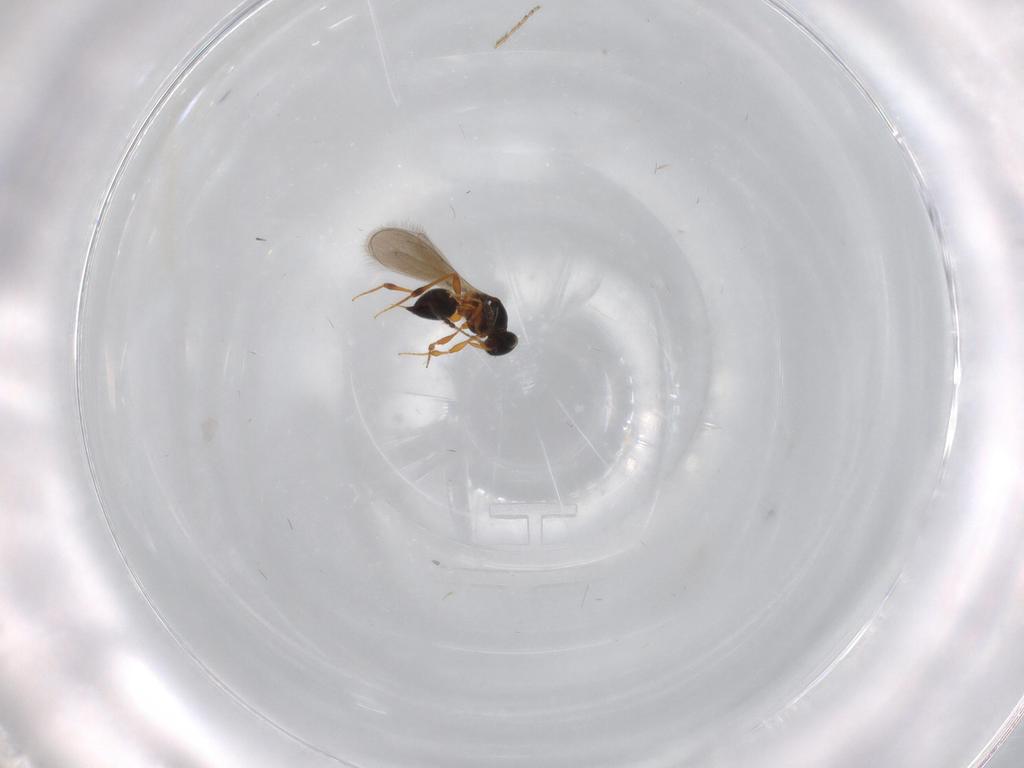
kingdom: Animalia
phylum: Arthropoda
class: Insecta
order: Hymenoptera
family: Platygastridae
